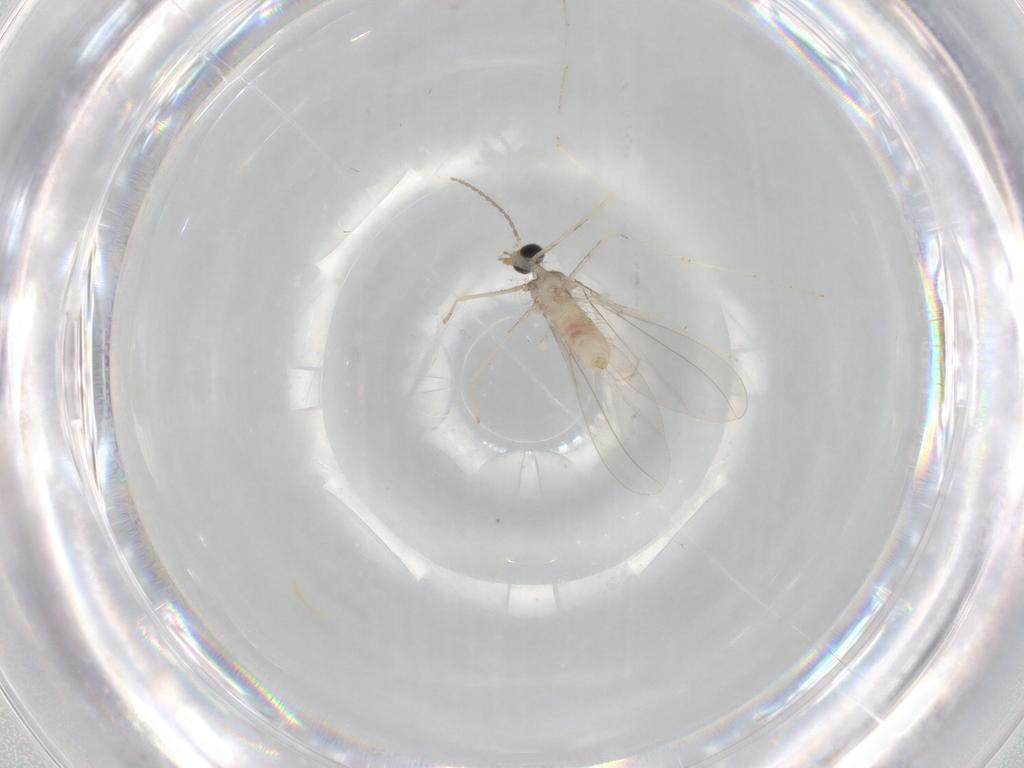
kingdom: Animalia
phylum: Arthropoda
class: Insecta
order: Diptera
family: Cecidomyiidae
